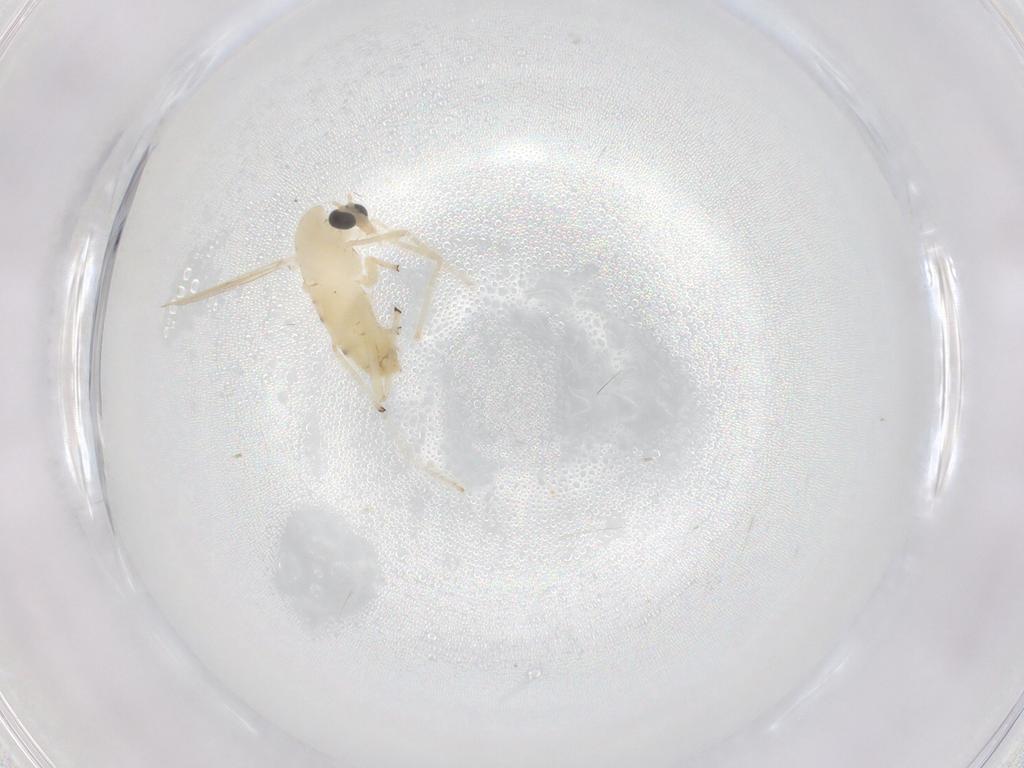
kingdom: Animalia
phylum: Arthropoda
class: Insecta
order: Diptera
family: Chironomidae
